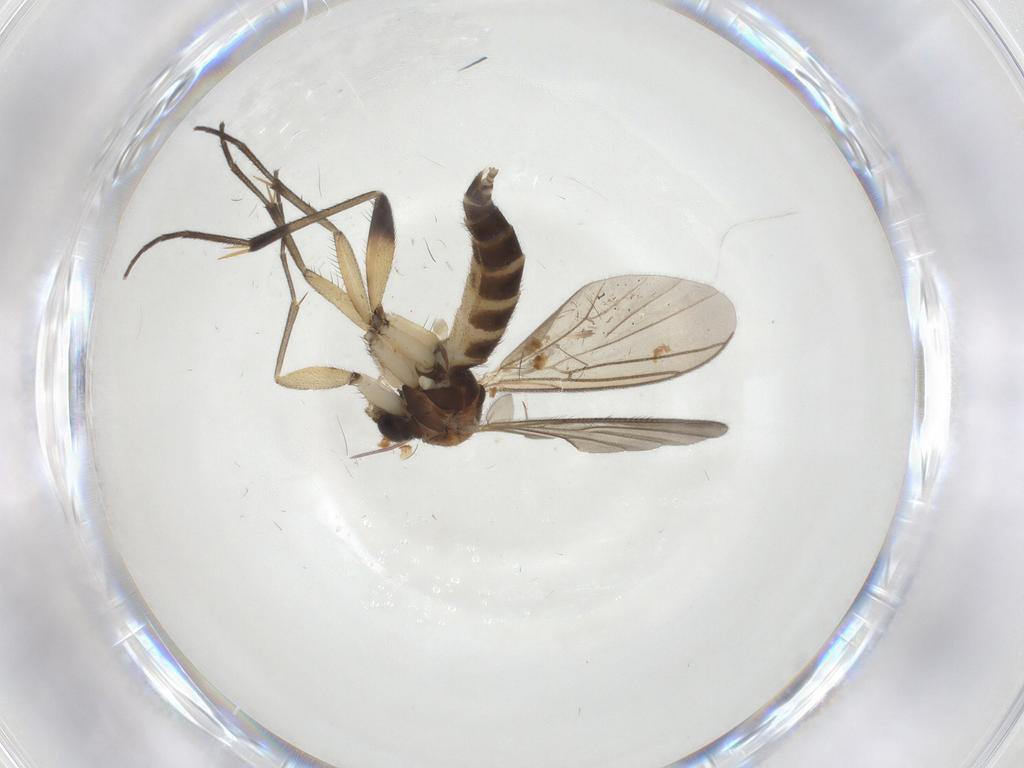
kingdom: Animalia
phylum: Arthropoda
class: Insecta
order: Diptera
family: Mycetophilidae
